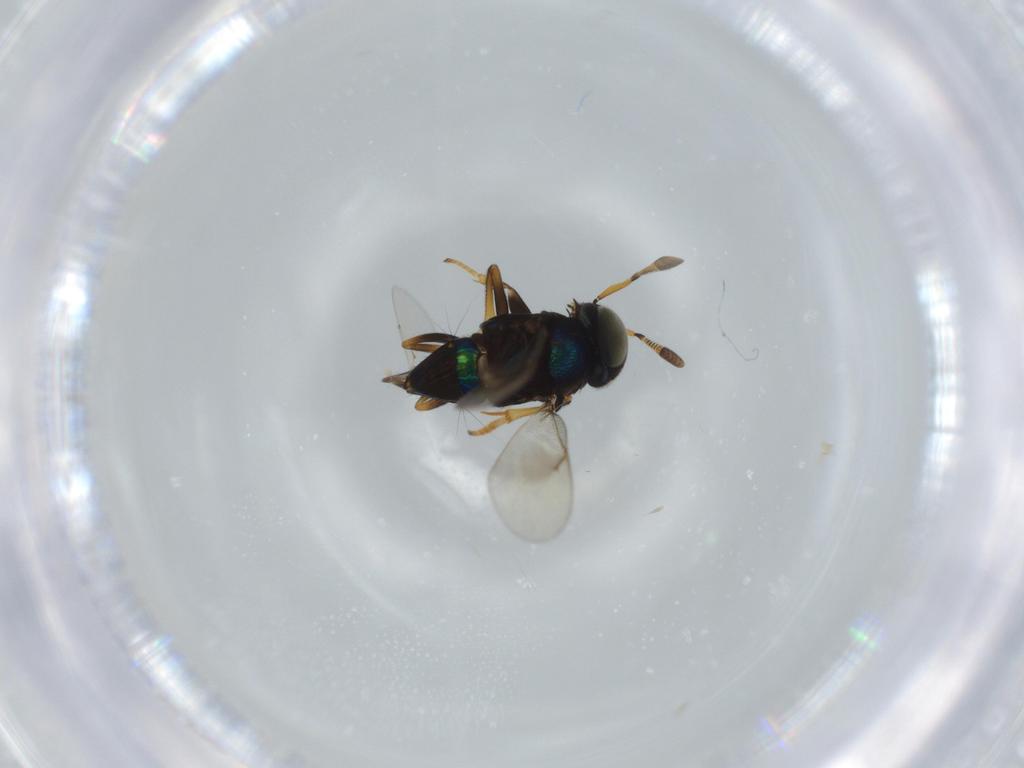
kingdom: Animalia
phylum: Arthropoda
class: Insecta
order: Hymenoptera
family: Encyrtidae
